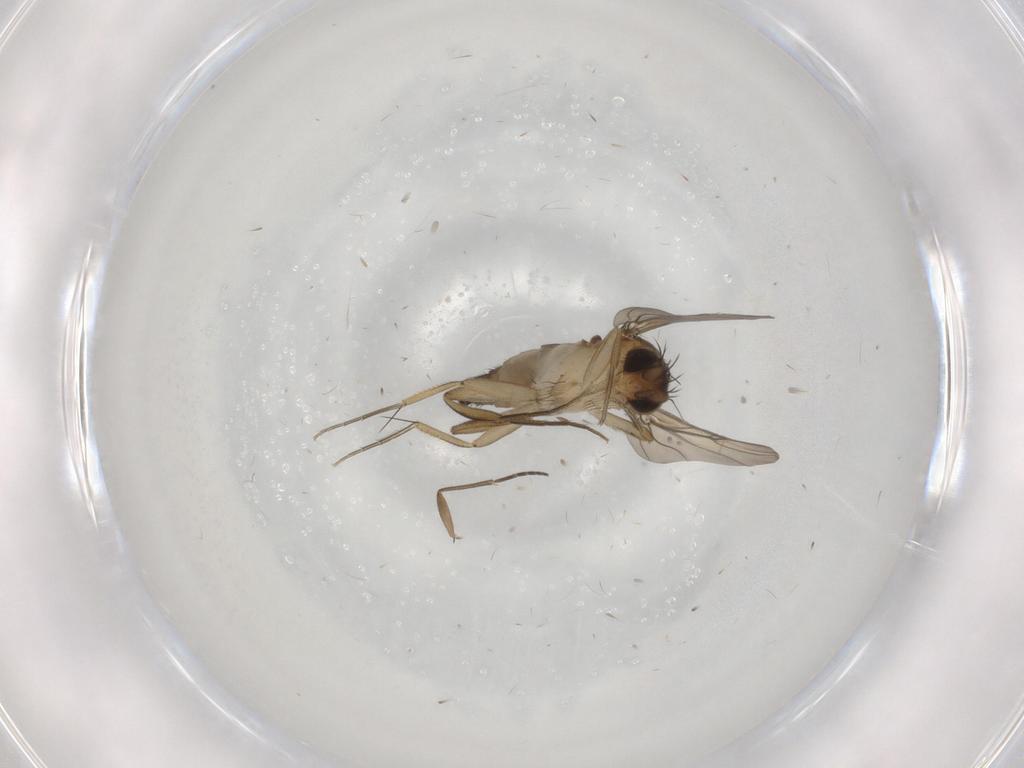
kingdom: Animalia
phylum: Arthropoda
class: Insecta
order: Diptera
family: Phoridae
